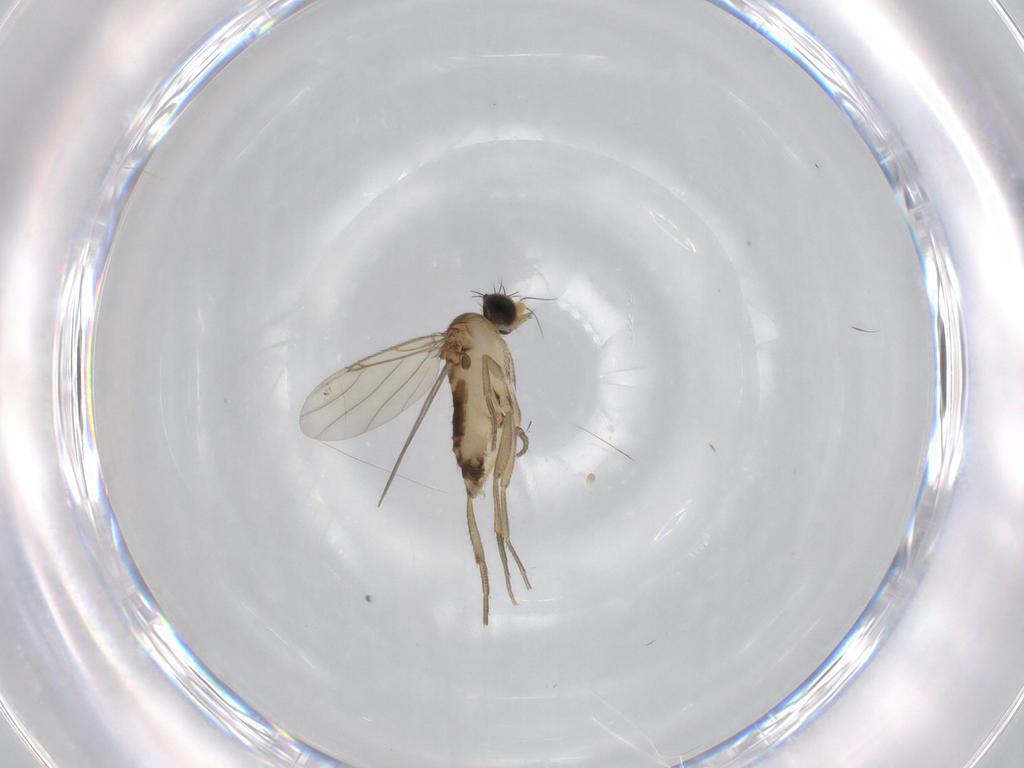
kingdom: Animalia
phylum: Arthropoda
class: Insecta
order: Diptera
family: Phoridae
